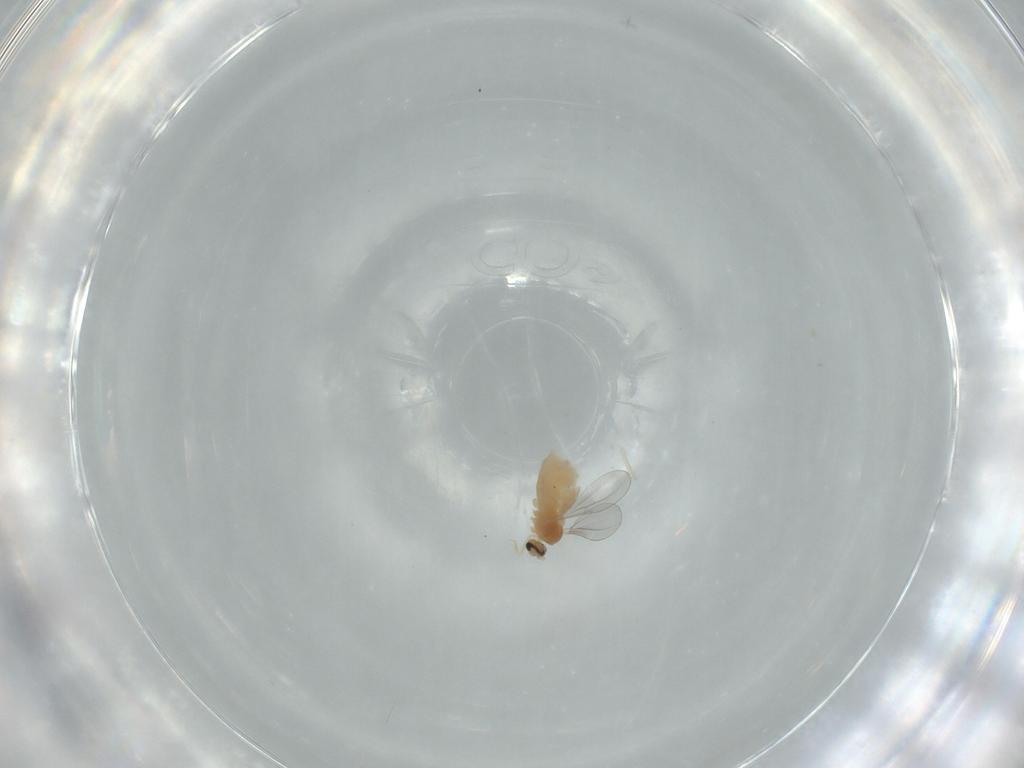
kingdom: Animalia
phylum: Arthropoda
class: Insecta
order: Diptera
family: Cecidomyiidae
